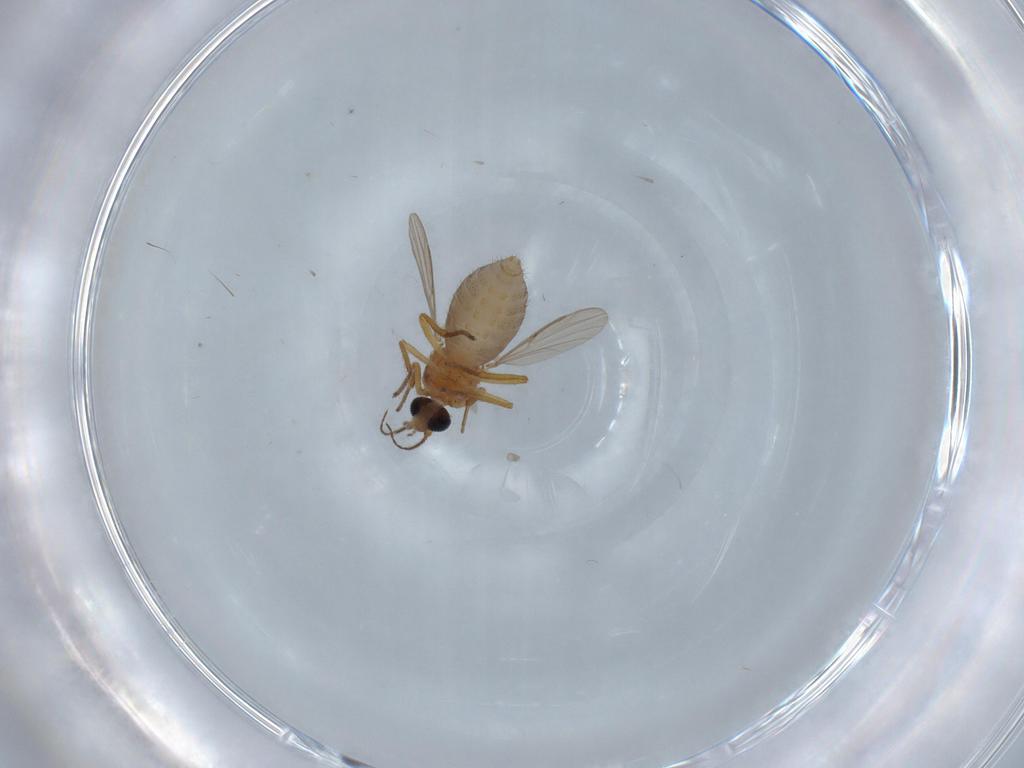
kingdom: Animalia
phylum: Arthropoda
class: Insecta
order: Diptera
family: Ceratopogonidae
